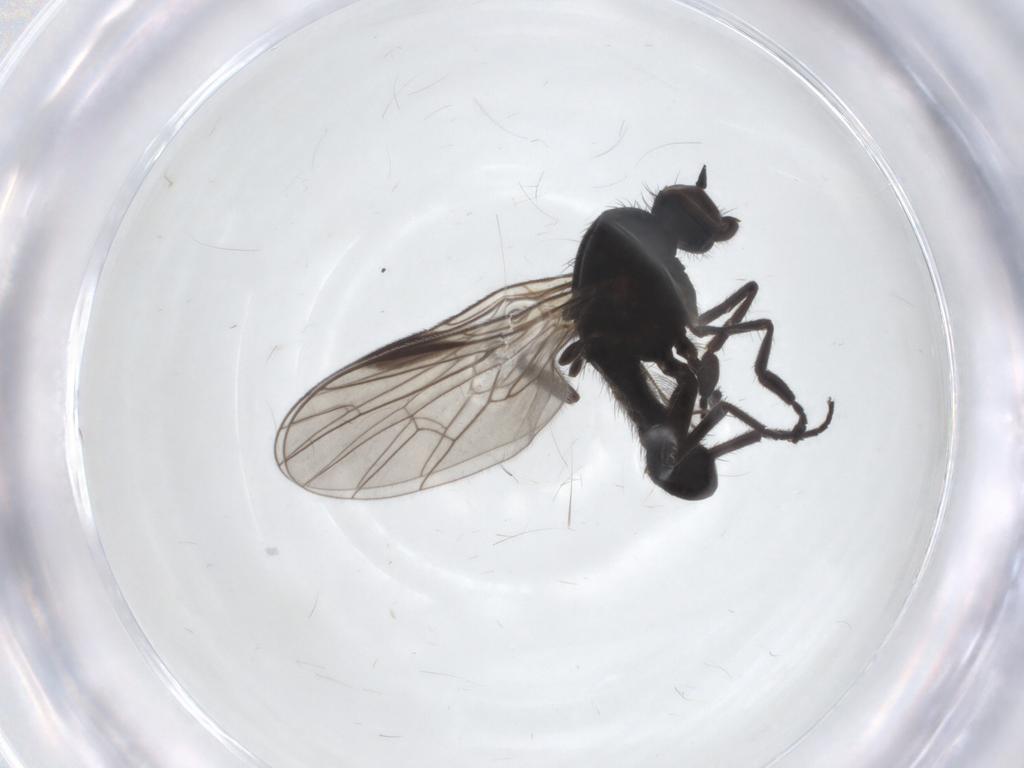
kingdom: Animalia
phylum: Arthropoda
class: Insecta
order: Diptera
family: Empididae
